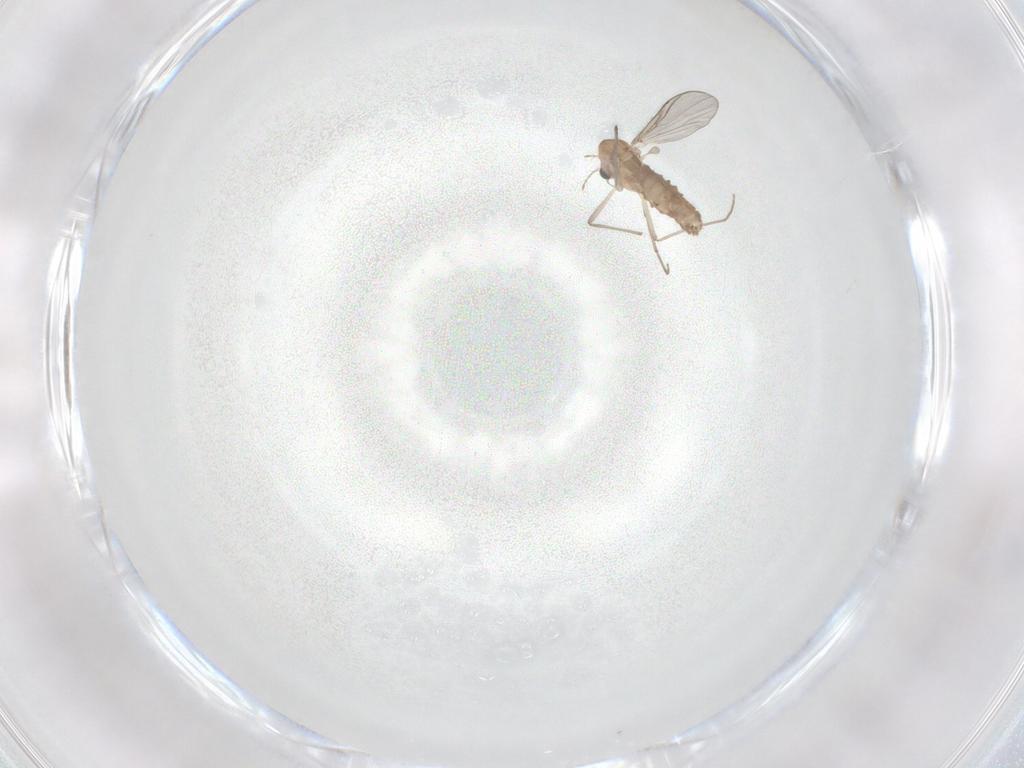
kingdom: Animalia
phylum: Arthropoda
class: Insecta
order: Diptera
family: Chironomidae
